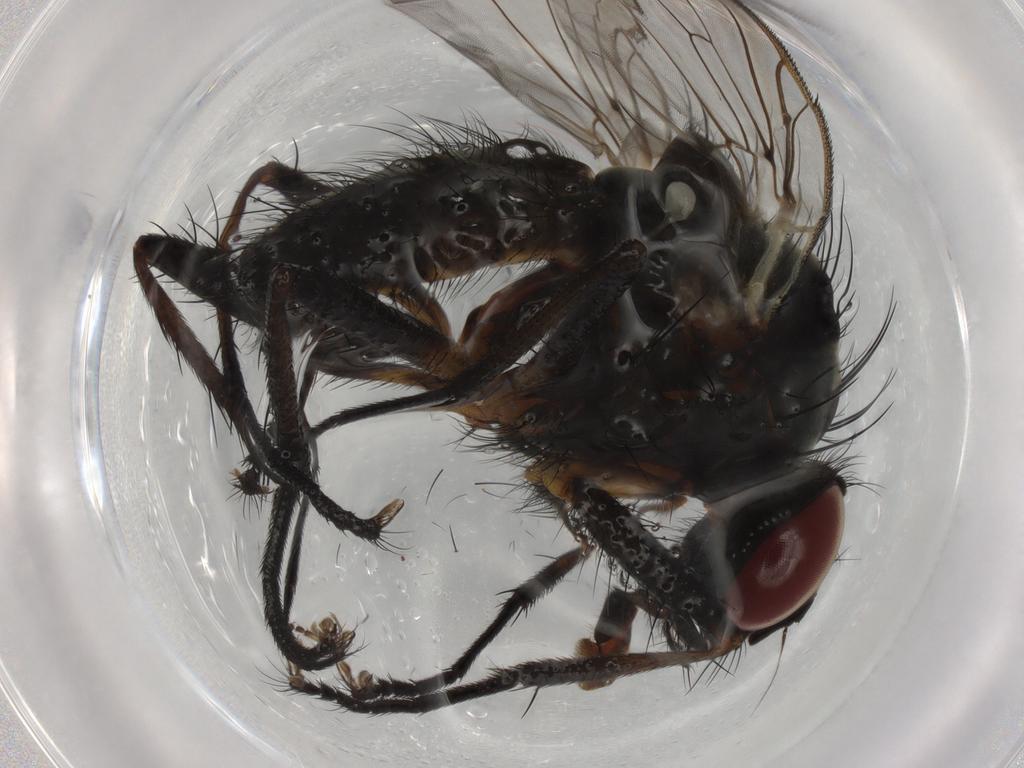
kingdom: Animalia
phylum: Arthropoda
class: Insecta
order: Diptera
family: Anthomyiidae
